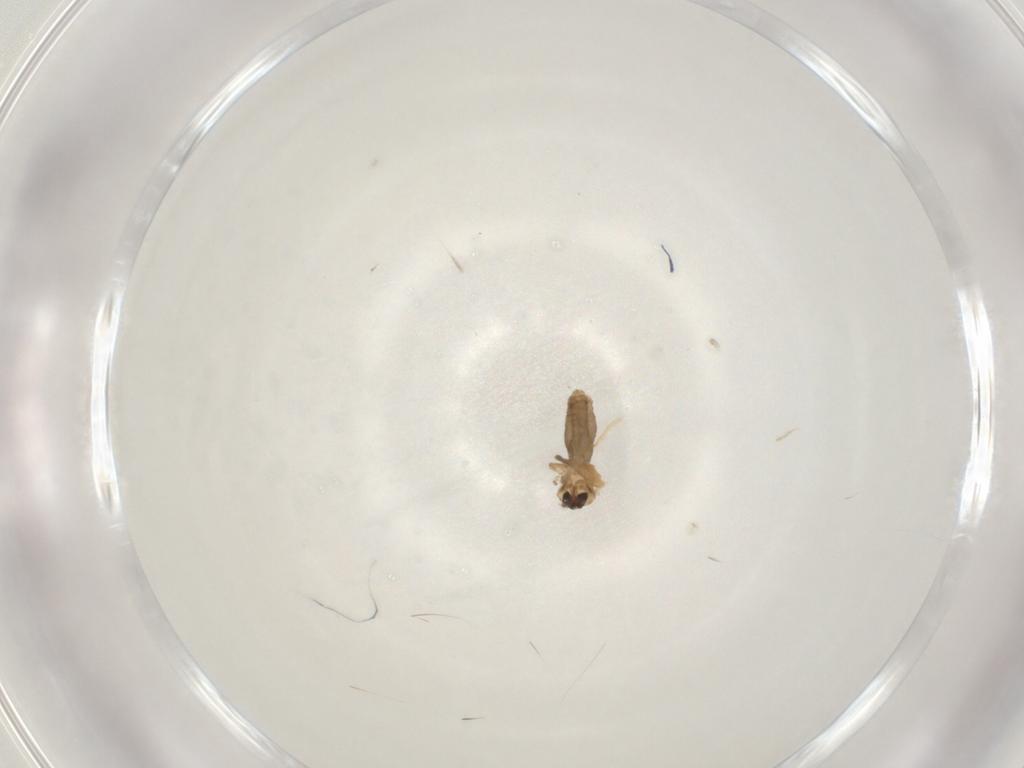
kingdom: Animalia
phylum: Arthropoda
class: Insecta
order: Diptera
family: Ceratopogonidae
